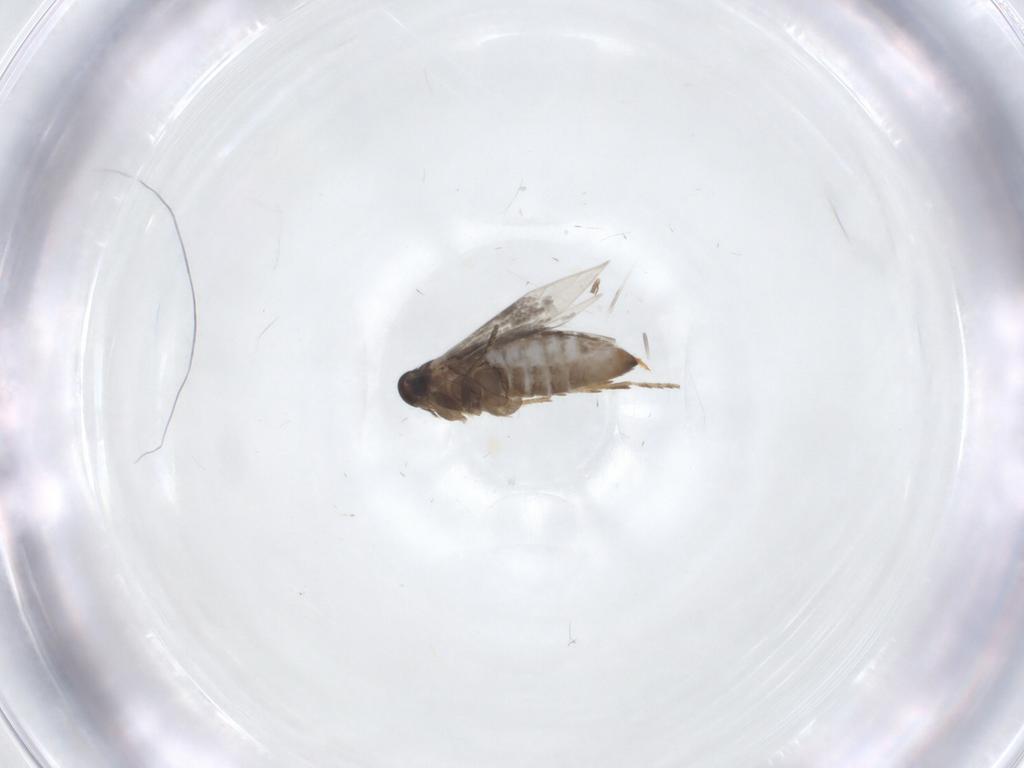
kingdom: Animalia
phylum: Arthropoda
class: Insecta
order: Lepidoptera
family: Heliozelidae
